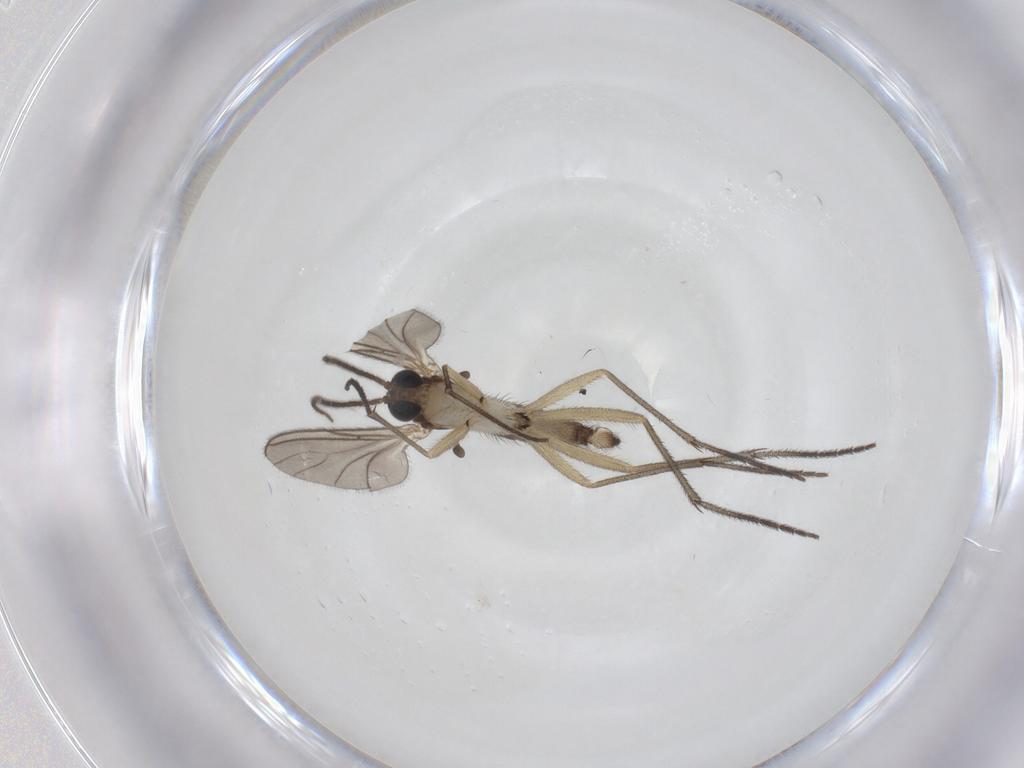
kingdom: Animalia
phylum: Arthropoda
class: Insecta
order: Diptera
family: Sciaridae
